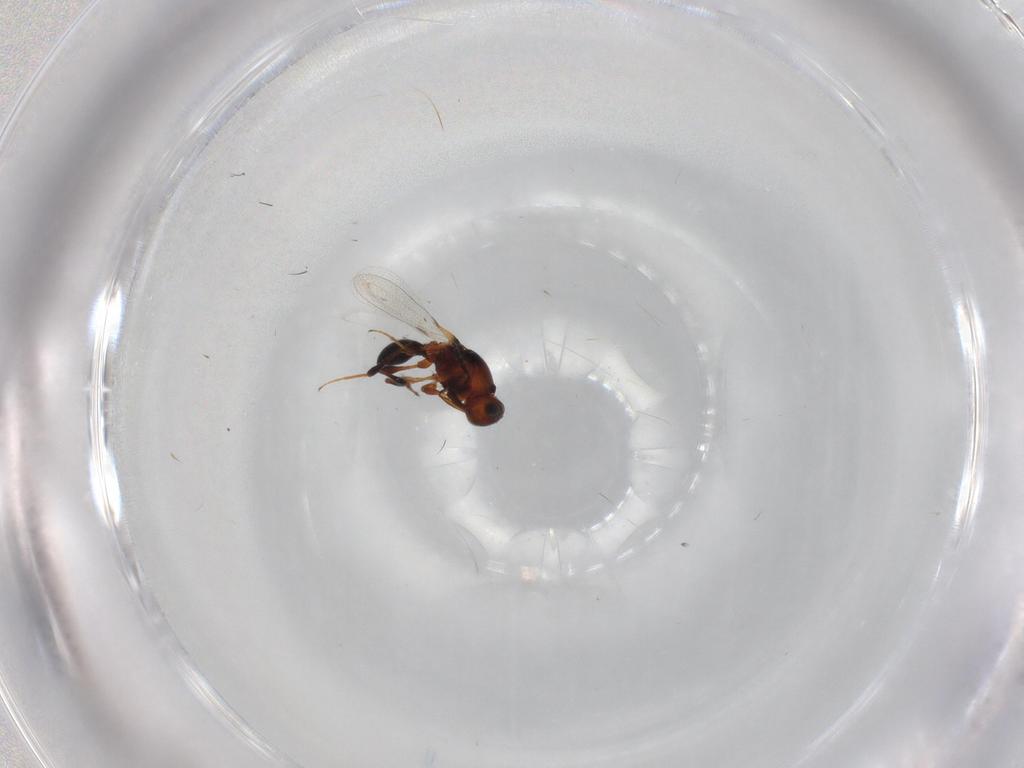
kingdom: Animalia
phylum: Arthropoda
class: Insecta
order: Hymenoptera
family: Platygastridae
